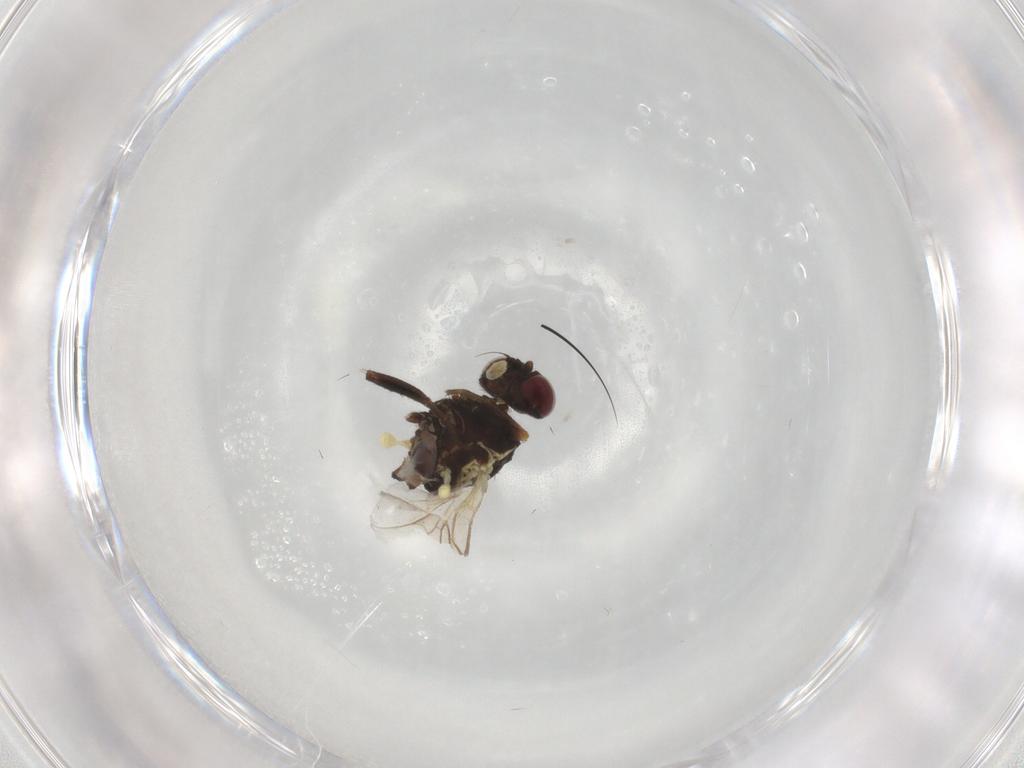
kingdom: Animalia
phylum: Arthropoda
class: Insecta
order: Diptera
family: Agromyzidae
